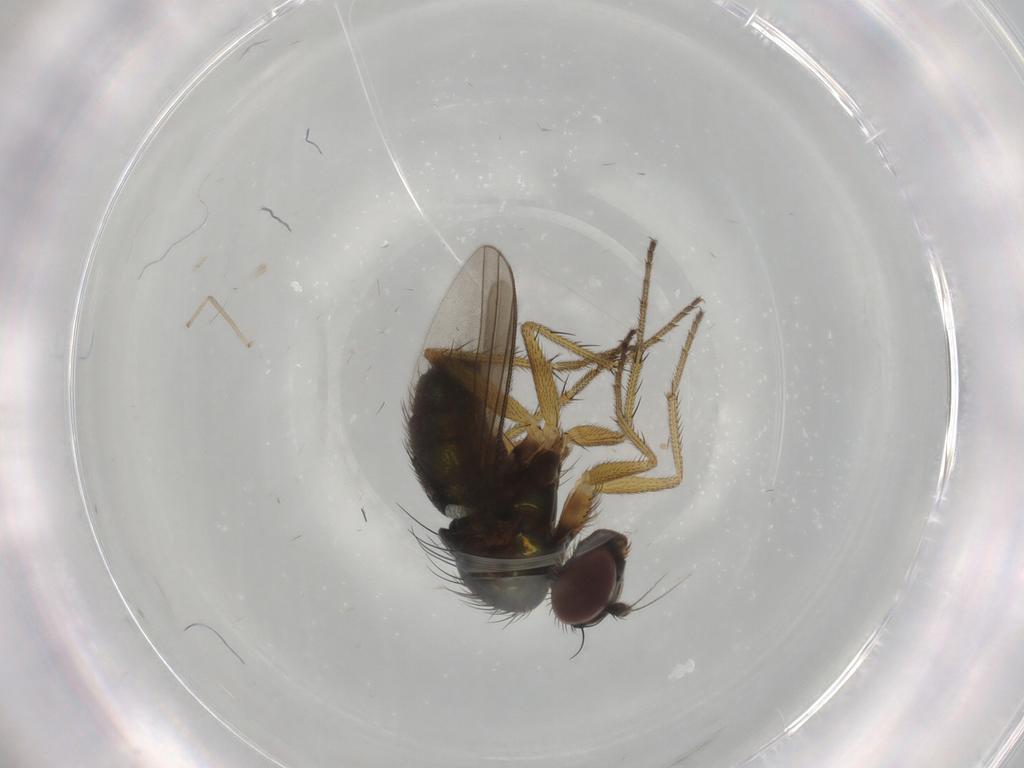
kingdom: Animalia
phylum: Arthropoda
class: Insecta
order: Diptera
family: Dolichopodidae
